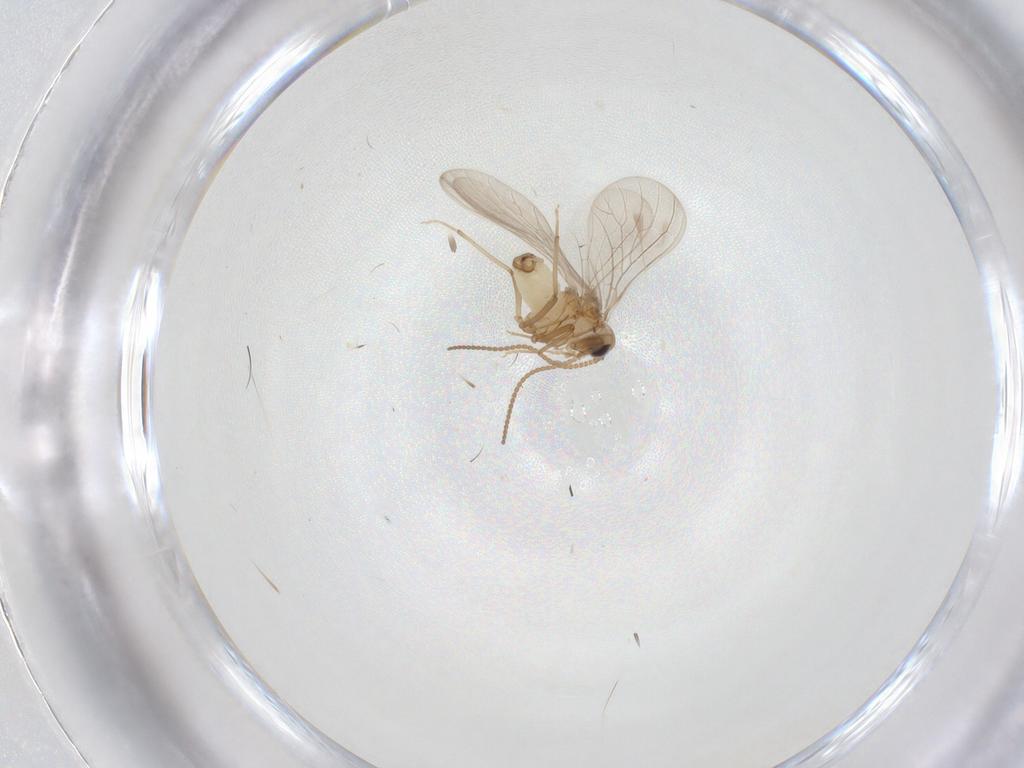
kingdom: Animalia
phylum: Arthropoda
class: Insecta
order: Neuroptera
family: Coniopterygidae
